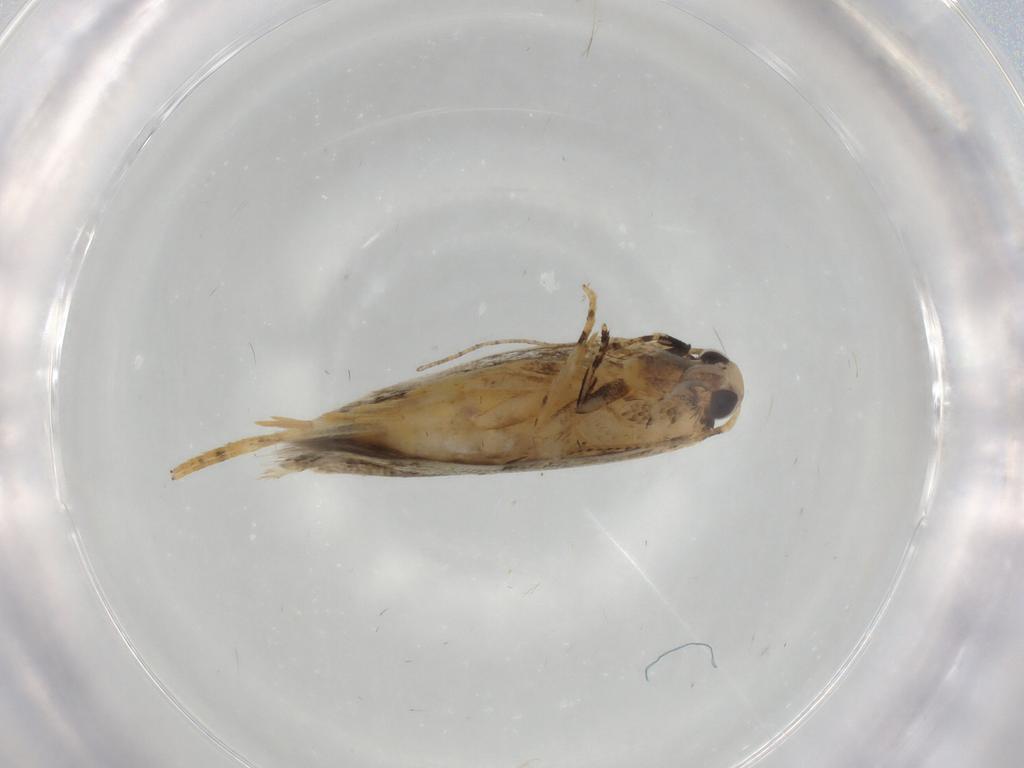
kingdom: Animalia
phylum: Arthropoda
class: Insecta
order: Lepidoptera
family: Gelechiidae
